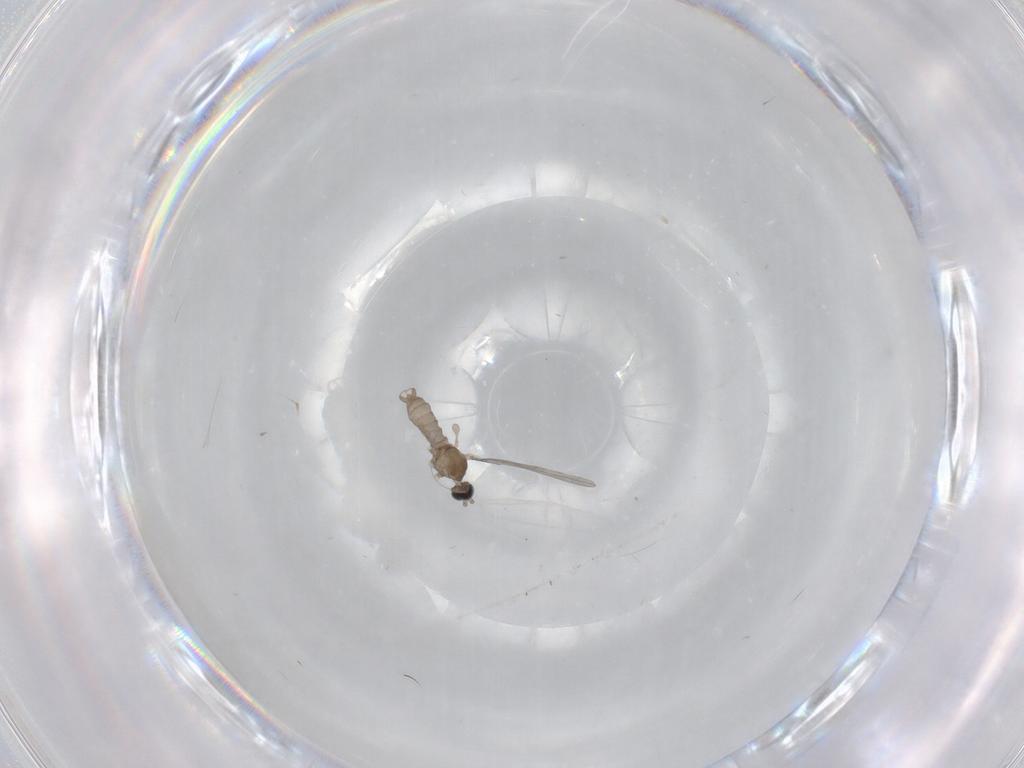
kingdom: Animalia
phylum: Arthropoda
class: Insecta
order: Diptera
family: Cecidomyiidae
